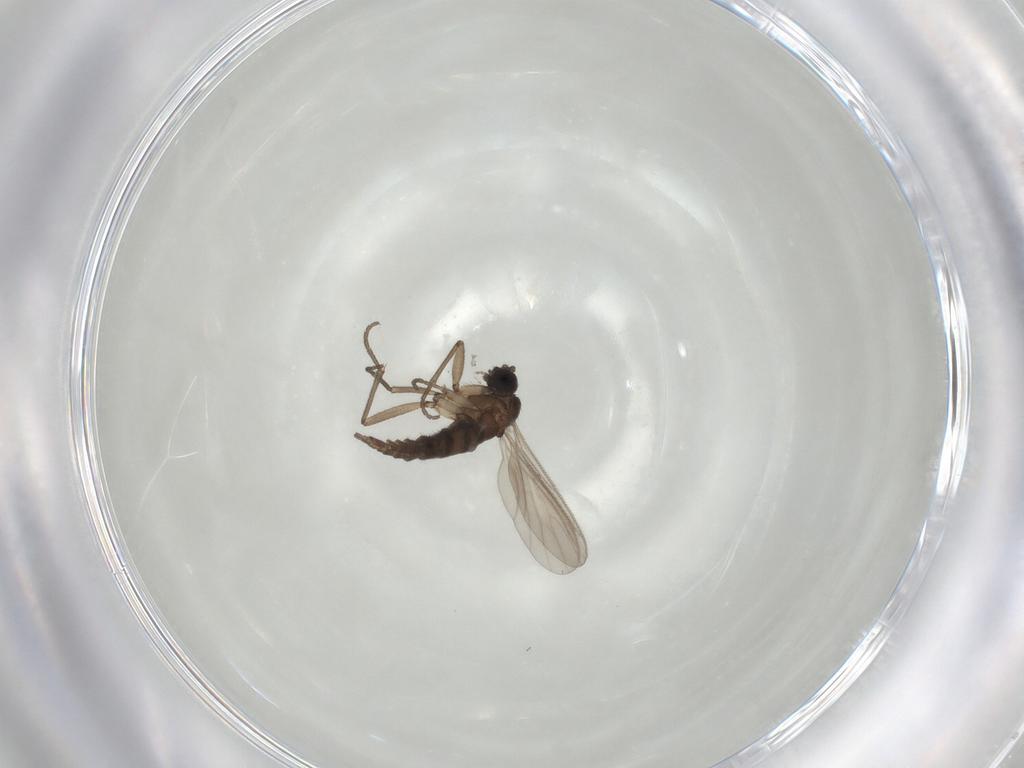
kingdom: Animalia
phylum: Arthropoda
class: Insecta
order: Diptera
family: Sciaridae
